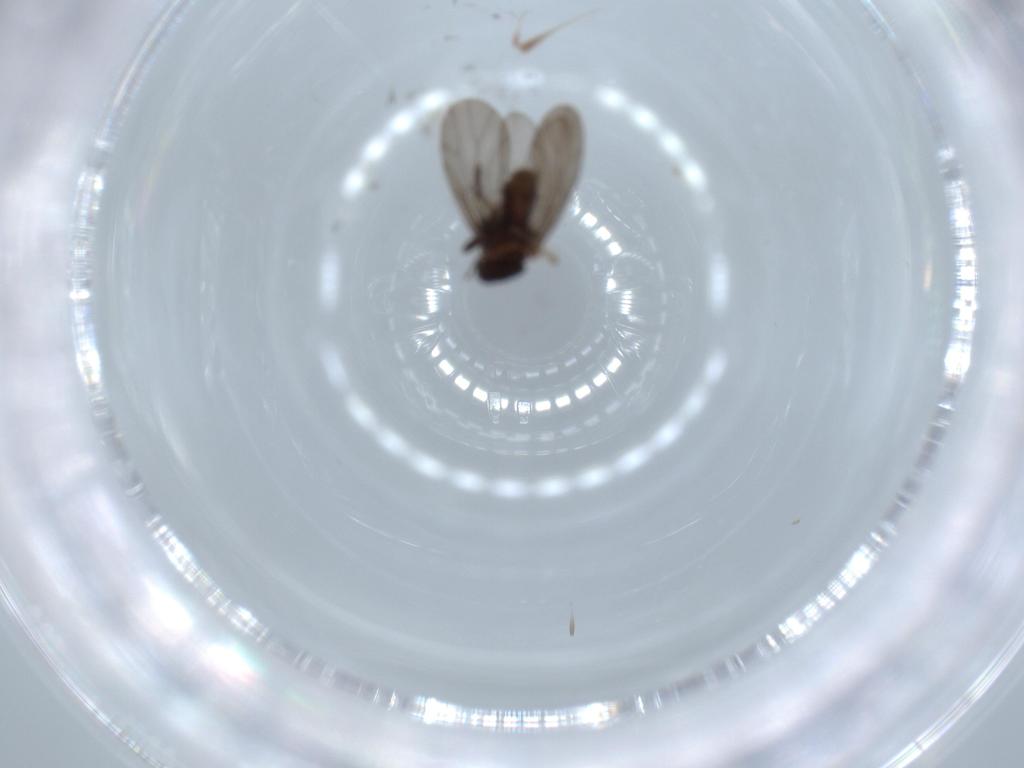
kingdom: Animalia
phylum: Arthropoda
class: Insecta
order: Psocodea
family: Lepidopsocidae
